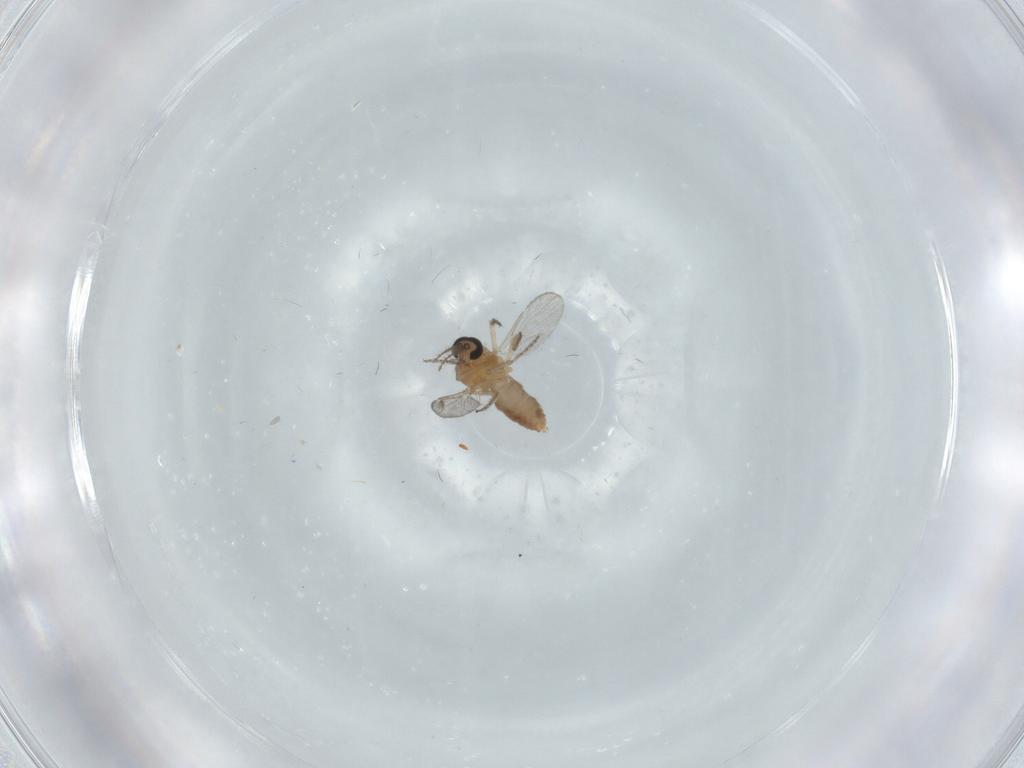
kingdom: Animalia
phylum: Arthropoda
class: Insecta
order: Diptera
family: Ceratopogonidae
